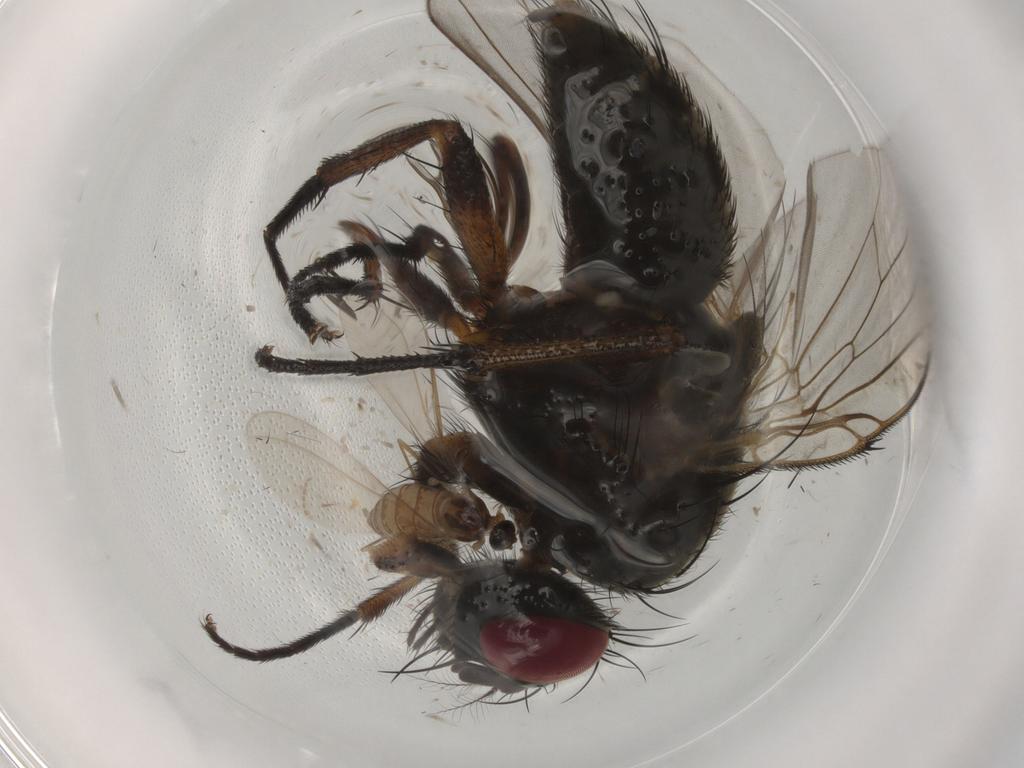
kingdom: Animalia
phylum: Arthropoda
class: Insecta
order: Diptera
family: Muscidae
